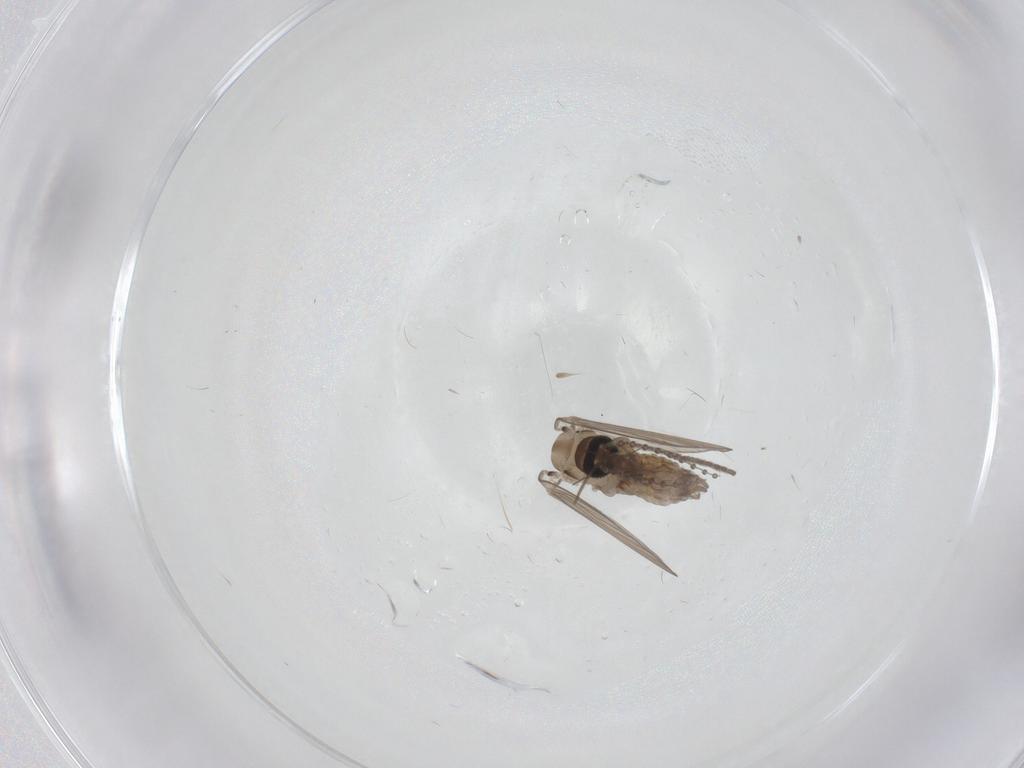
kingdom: Animalia
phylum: Arthropoda
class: Insecta
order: Diptera
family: Psychodidae
